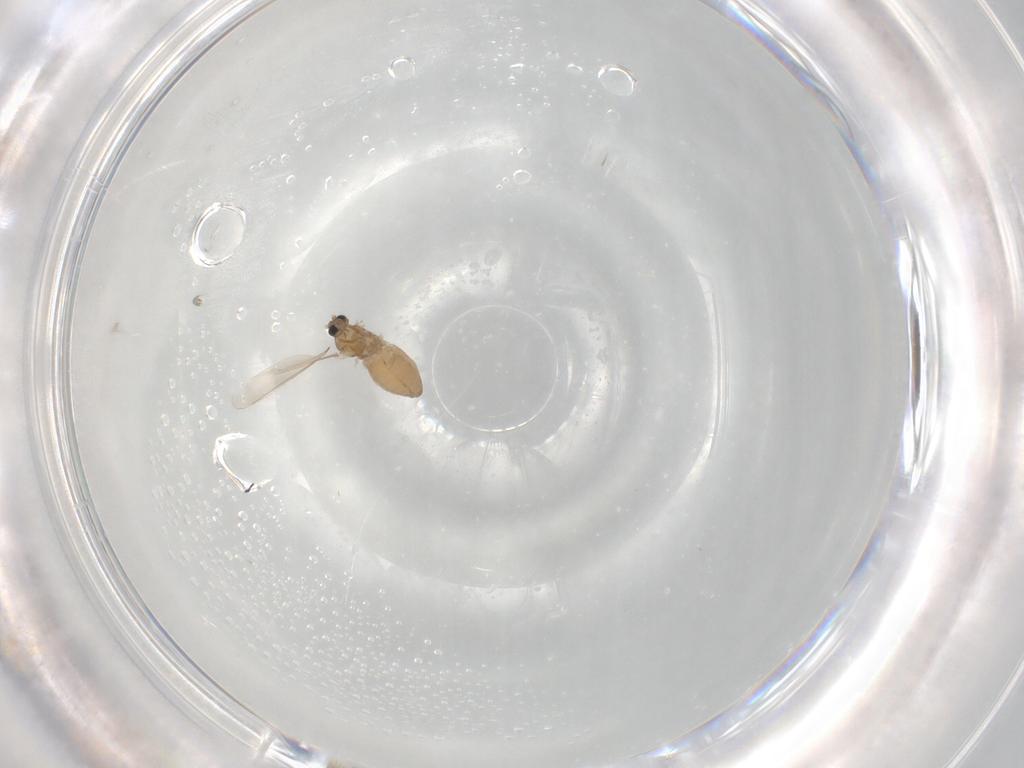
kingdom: Animalia
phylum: Arthropoda
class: Insecta
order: Diptera
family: Cecidomyiidae
